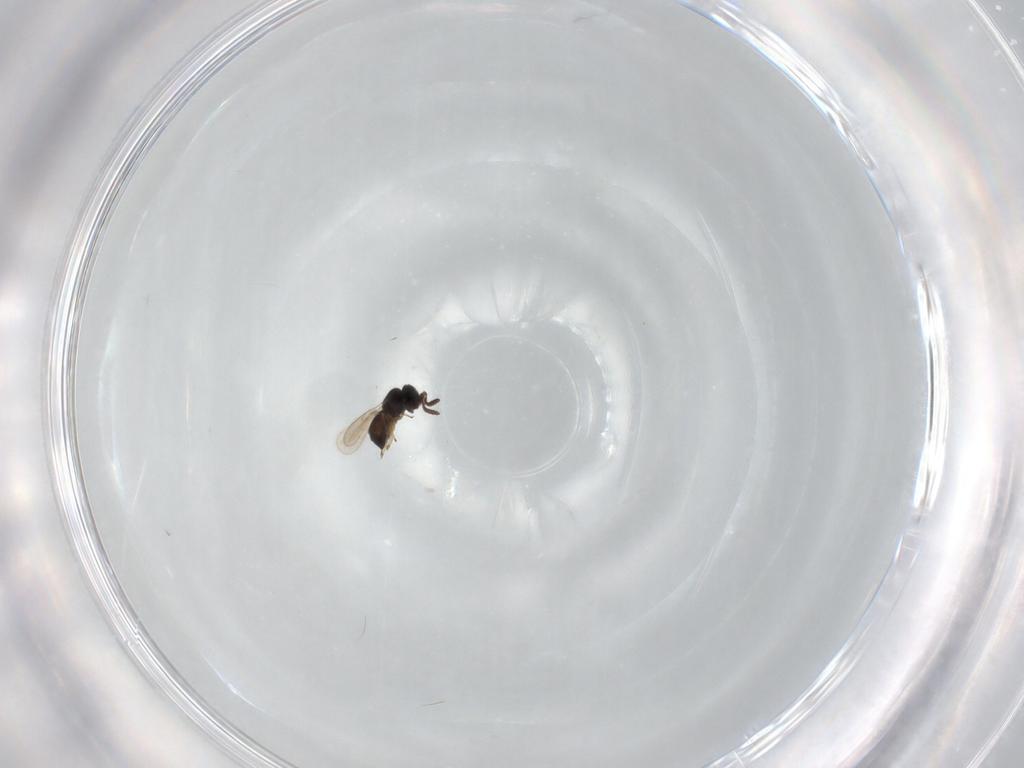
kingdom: Animalia
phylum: Arthropoda
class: Insecta
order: Hymenoptera
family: Scelionidae
